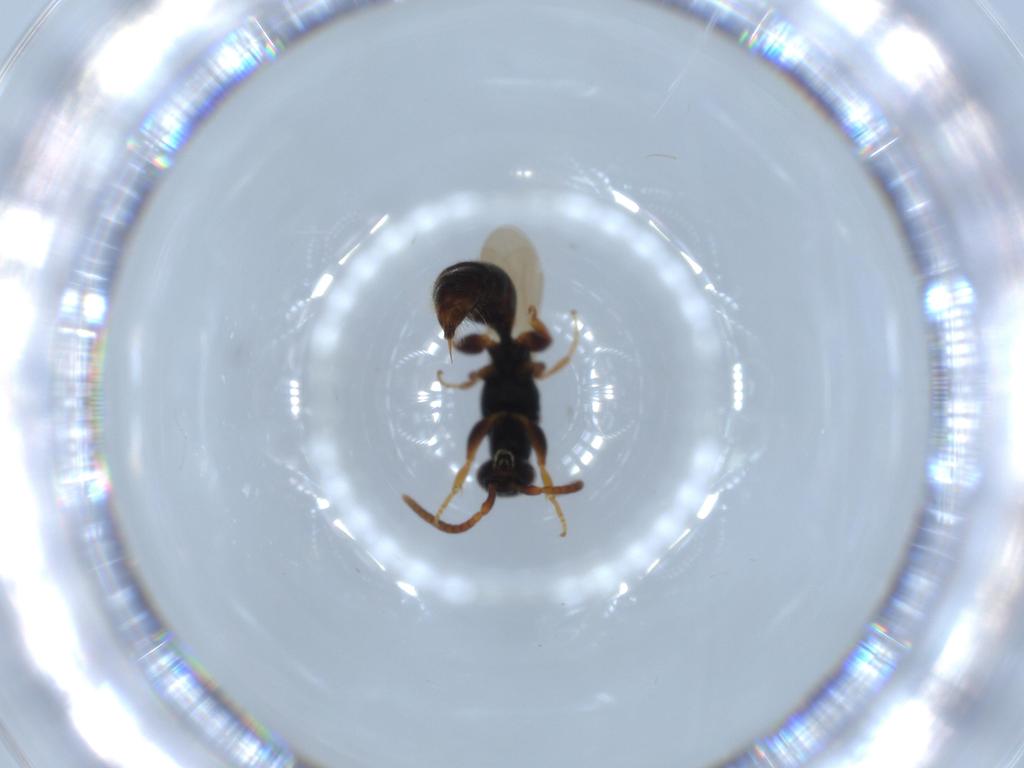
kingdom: Animalia
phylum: Arthropoda
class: Insecta
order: Hymenoptera
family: Bethylidae
